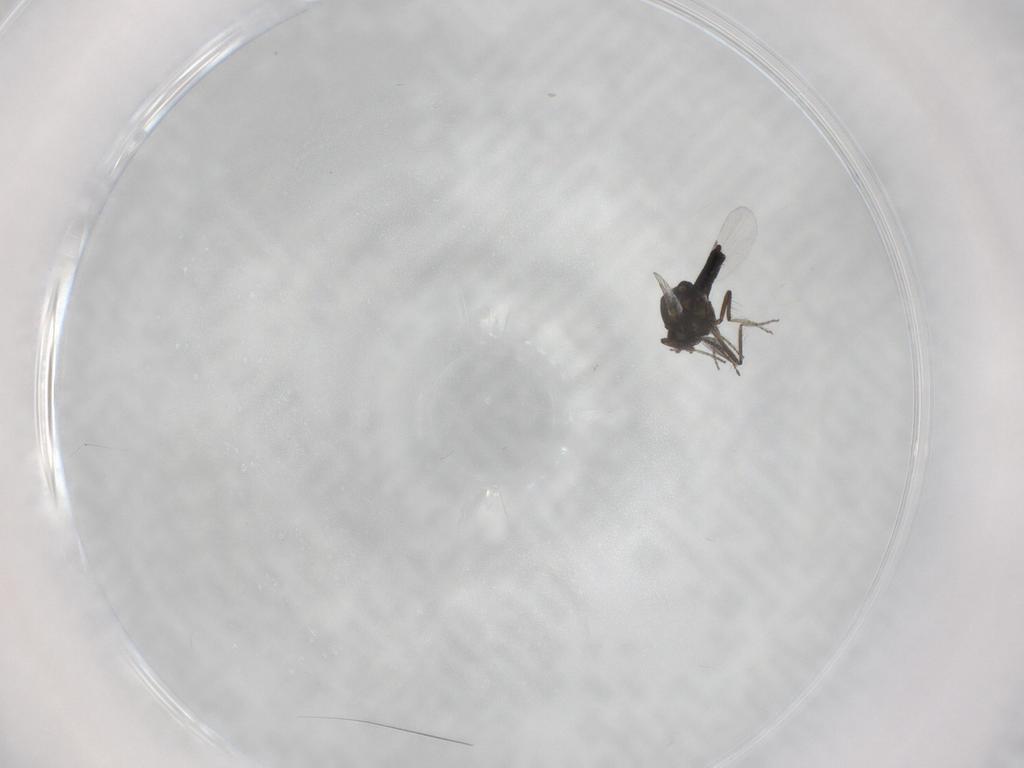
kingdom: Animalia
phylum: Arthropoda
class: Insecta
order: Diptera
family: Ceratopogonidae
